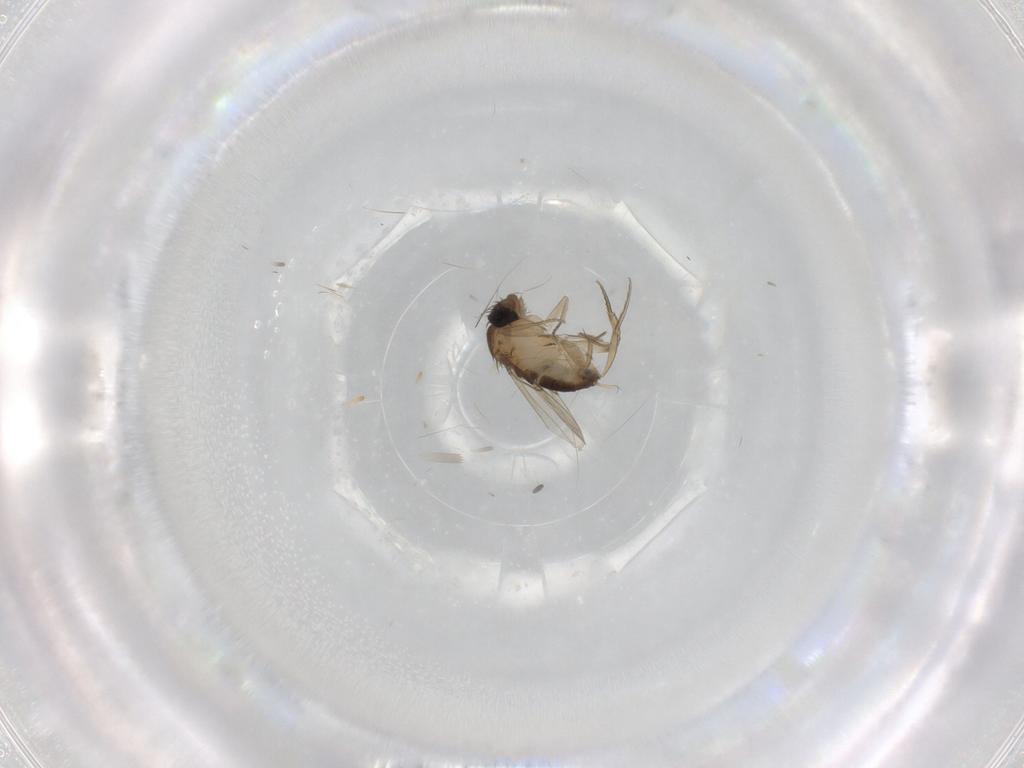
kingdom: Animalia
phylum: Arthropoda
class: Insecta
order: Diptera
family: Phoridae
